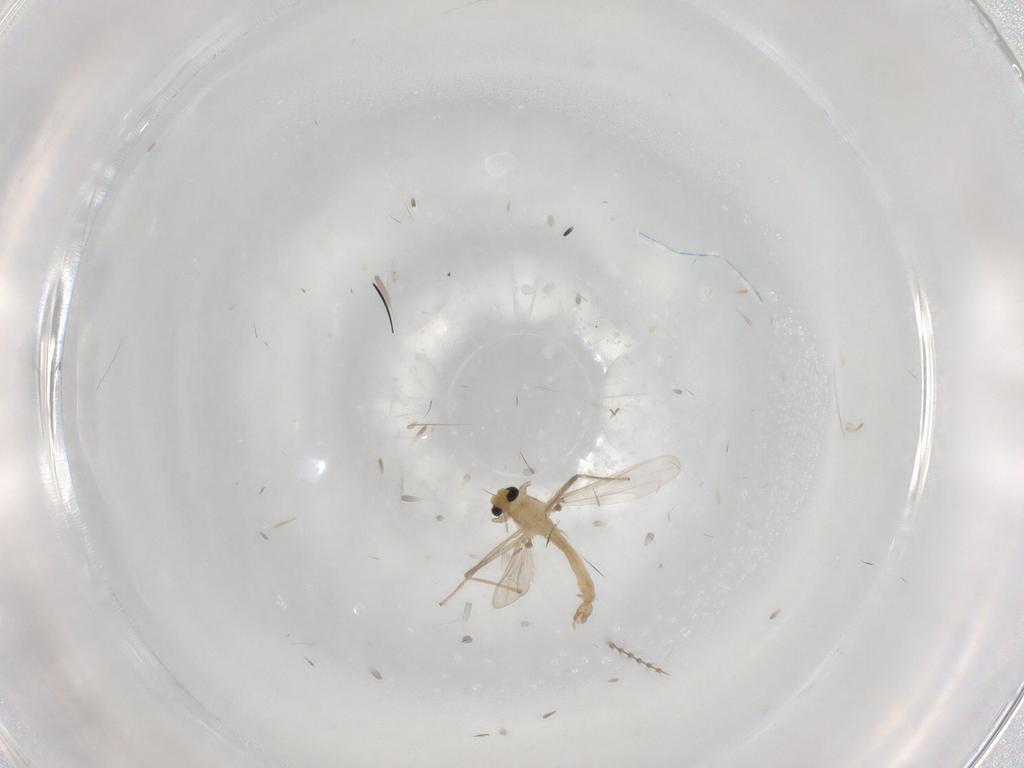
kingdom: Animalia
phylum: Arthropoda
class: Insecta
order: Diptera
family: Chironomidae
